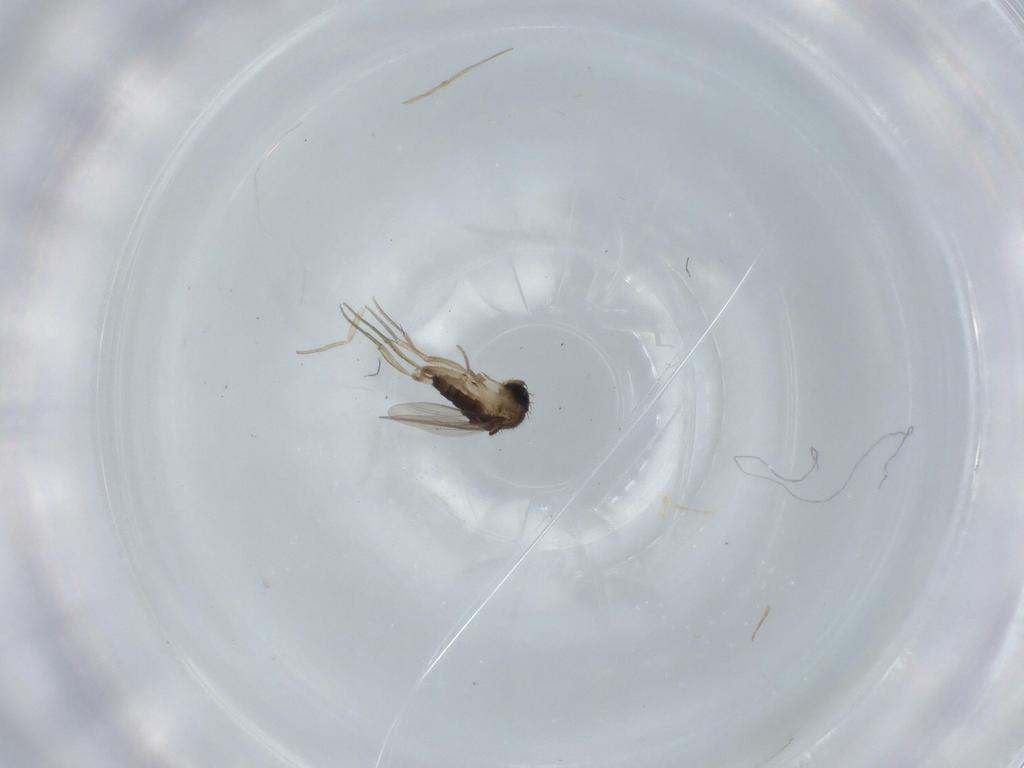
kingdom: Animalia
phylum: Arthropoda
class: Insecta
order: Diptera
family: Phoridae
